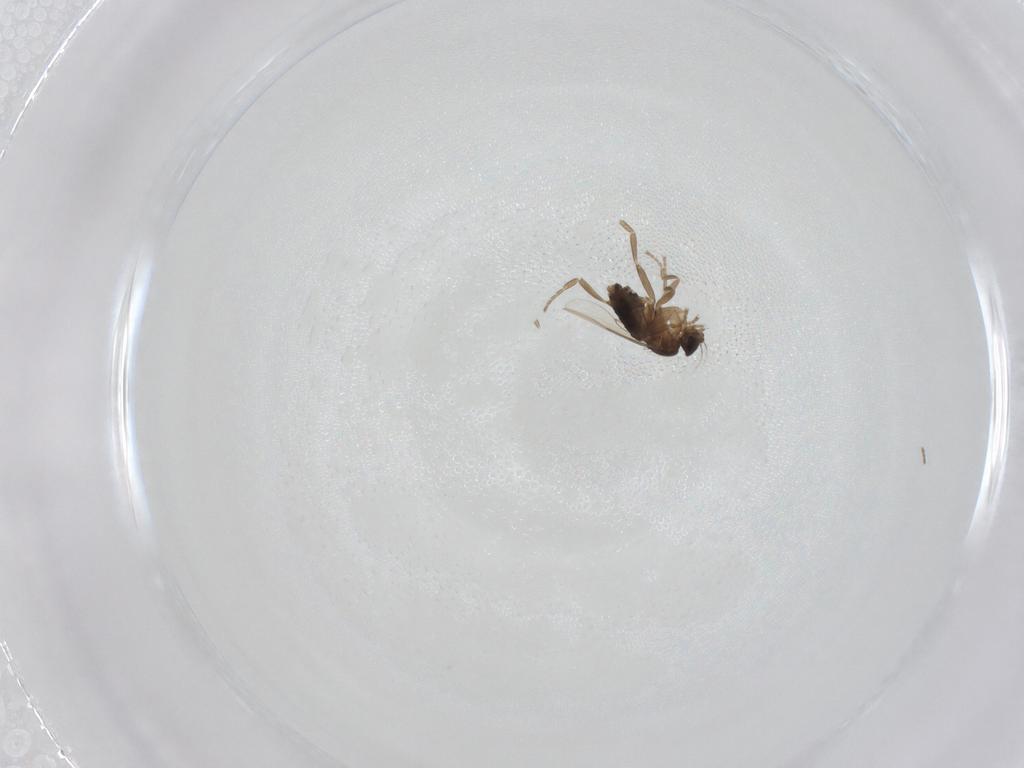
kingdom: Animalia
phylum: Arthropoda
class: Insecta
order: Diptera
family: Phoridae
